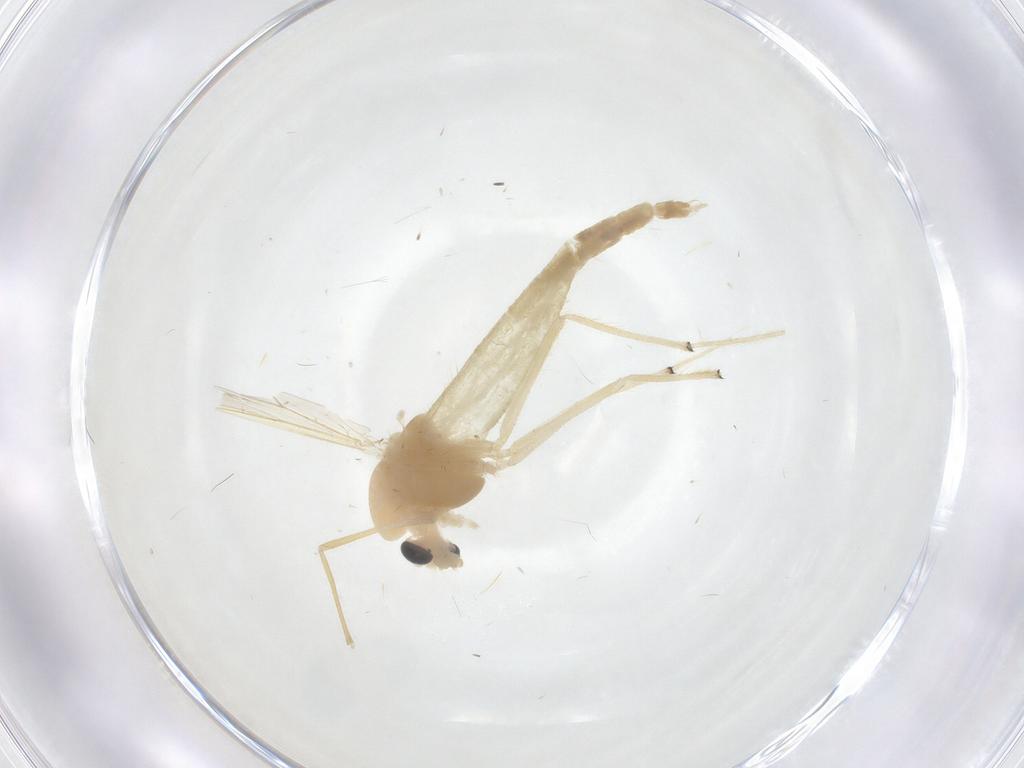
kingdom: Animalia
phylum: Arthropoda
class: Insecta
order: Diptera
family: Chironomidae
